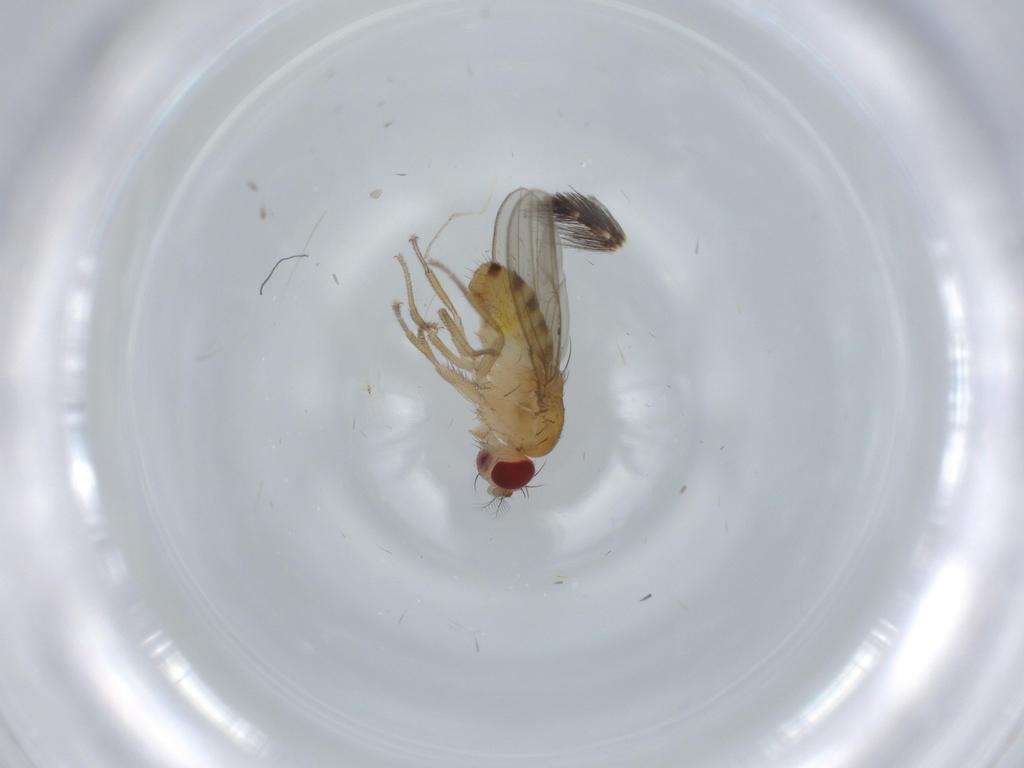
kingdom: Animalia
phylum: Arthropoda
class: Insecta
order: Diptera
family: Drosophilidae
